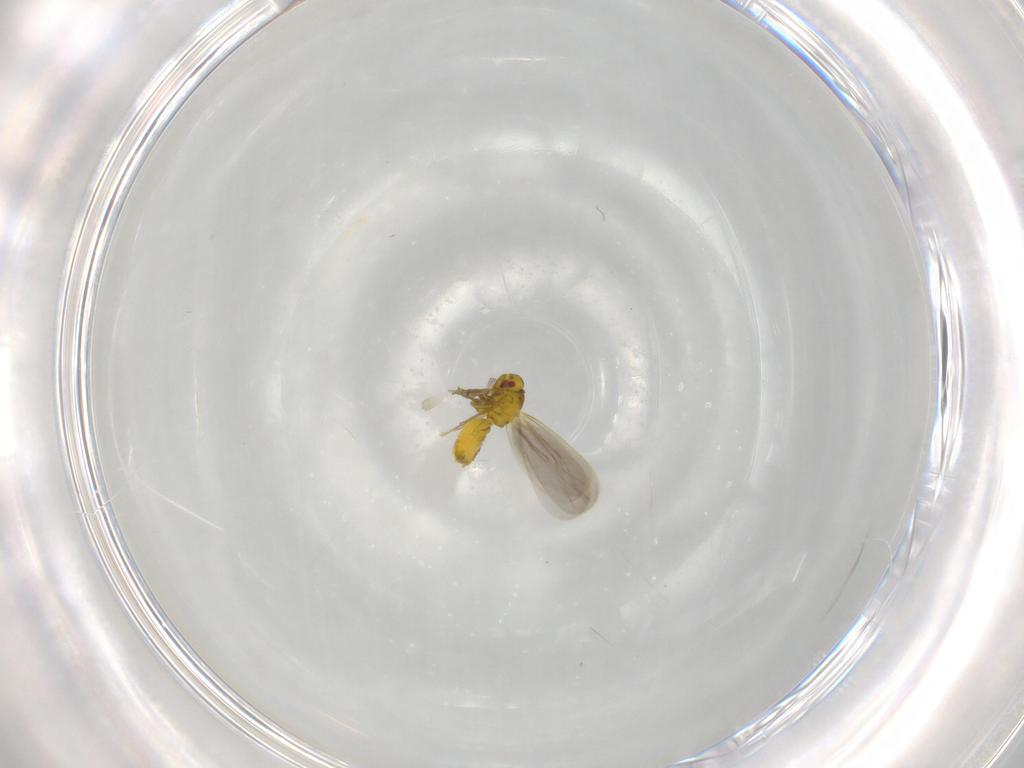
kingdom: Animalia
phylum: Arthropoda
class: Insecta
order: Hemiptera
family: Aleyrodidae
